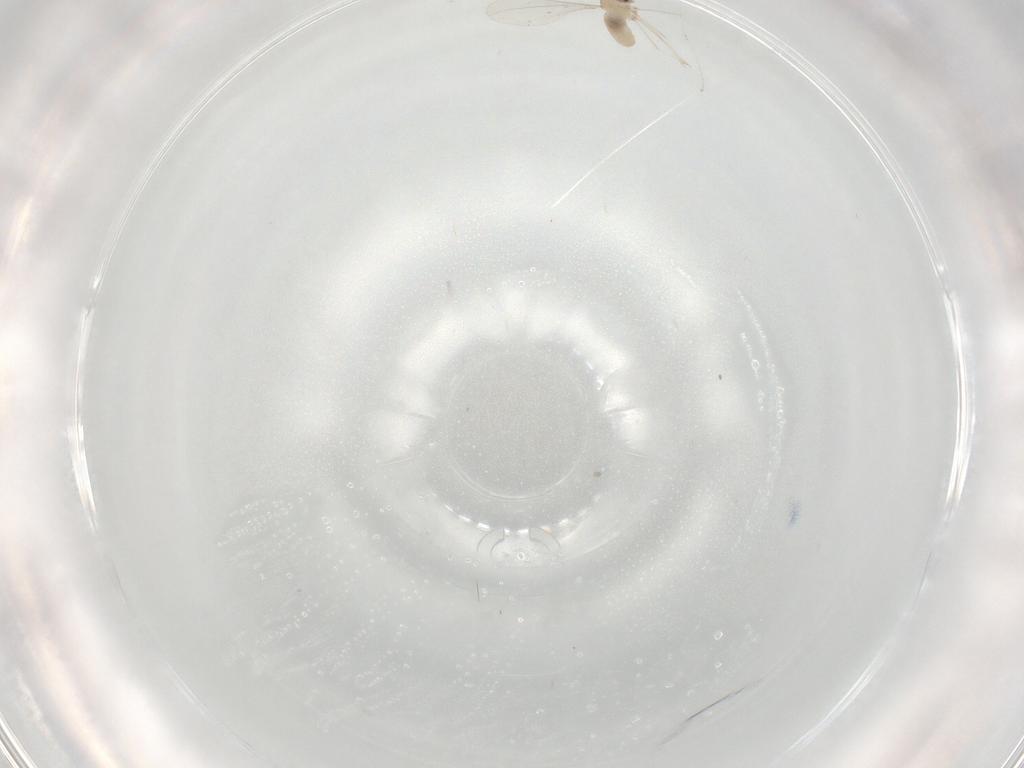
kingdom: Animalia
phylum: Arthropoda
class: Insecta
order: Diptera
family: Cecidomyiidae
